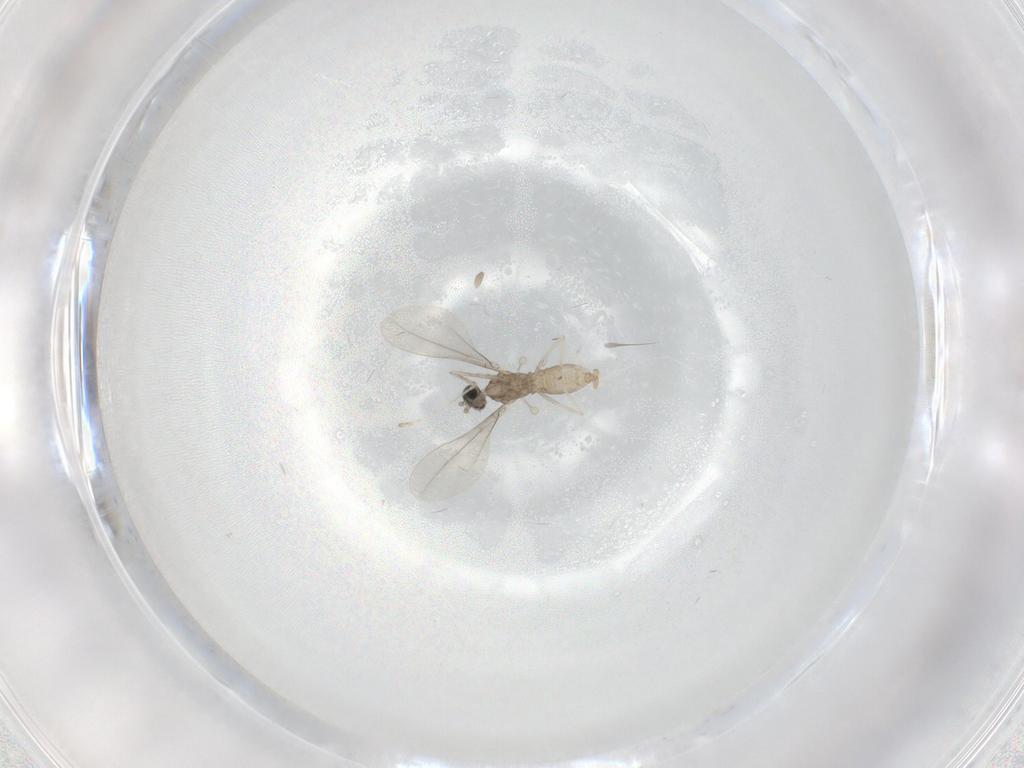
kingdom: Animalia
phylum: Arthropoda
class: Insecta
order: Diptera
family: Cecidomyiidae
